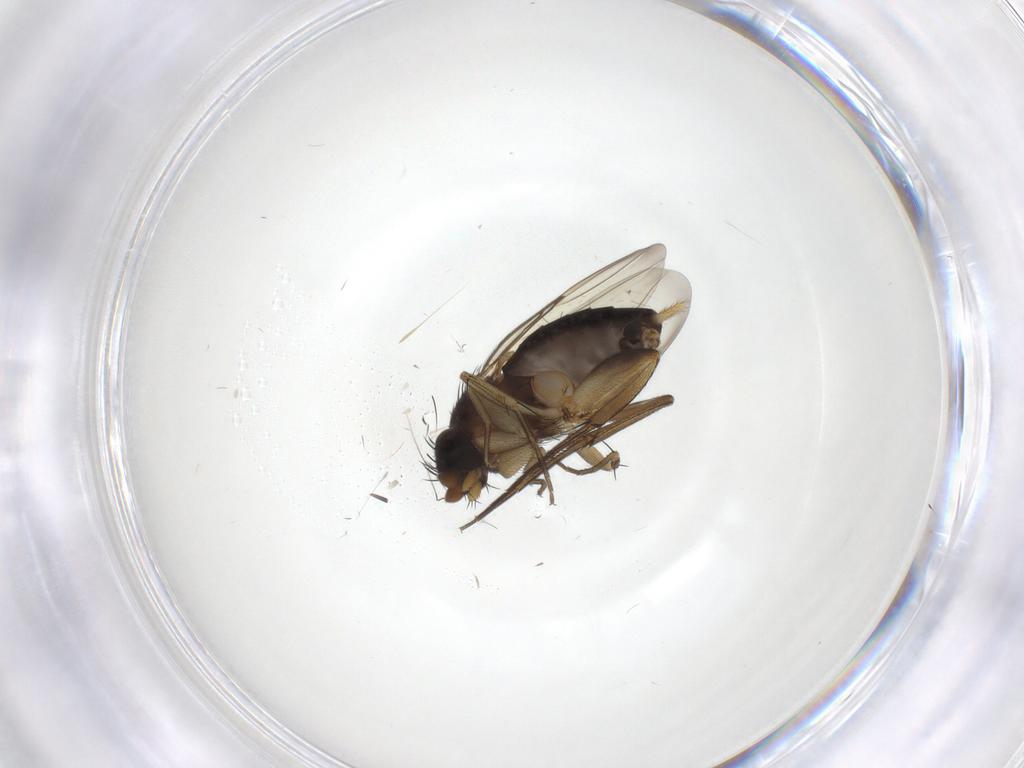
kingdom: Animalia
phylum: Arthropoda
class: Insecta
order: Diptera
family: Phoridae
